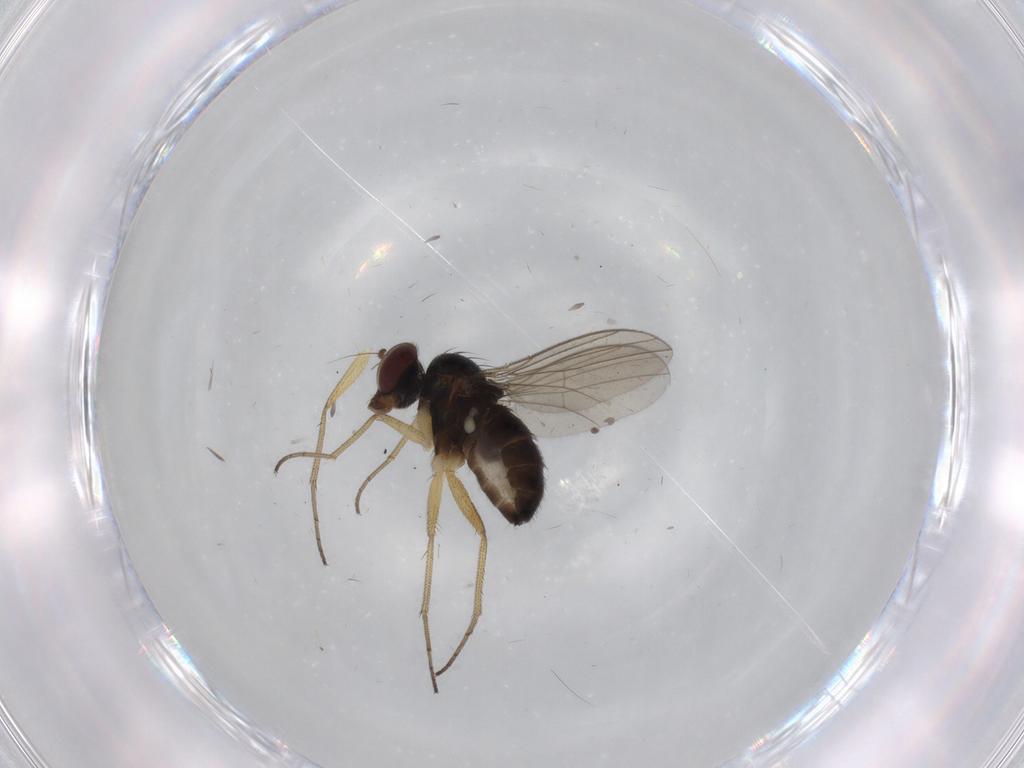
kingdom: Animalia
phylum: Arthropoda
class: Insecta
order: Diptera
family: Dolichopodidae
